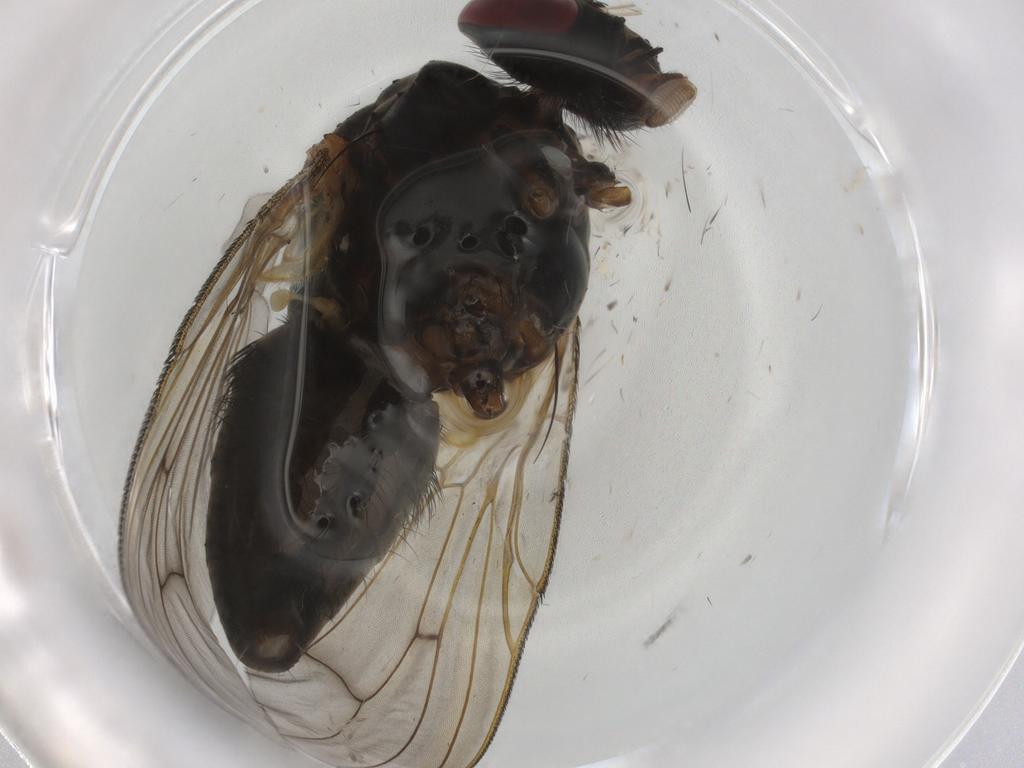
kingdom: Animalia
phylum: Arthropoda
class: Insecta
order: Diptera
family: Muscidae
